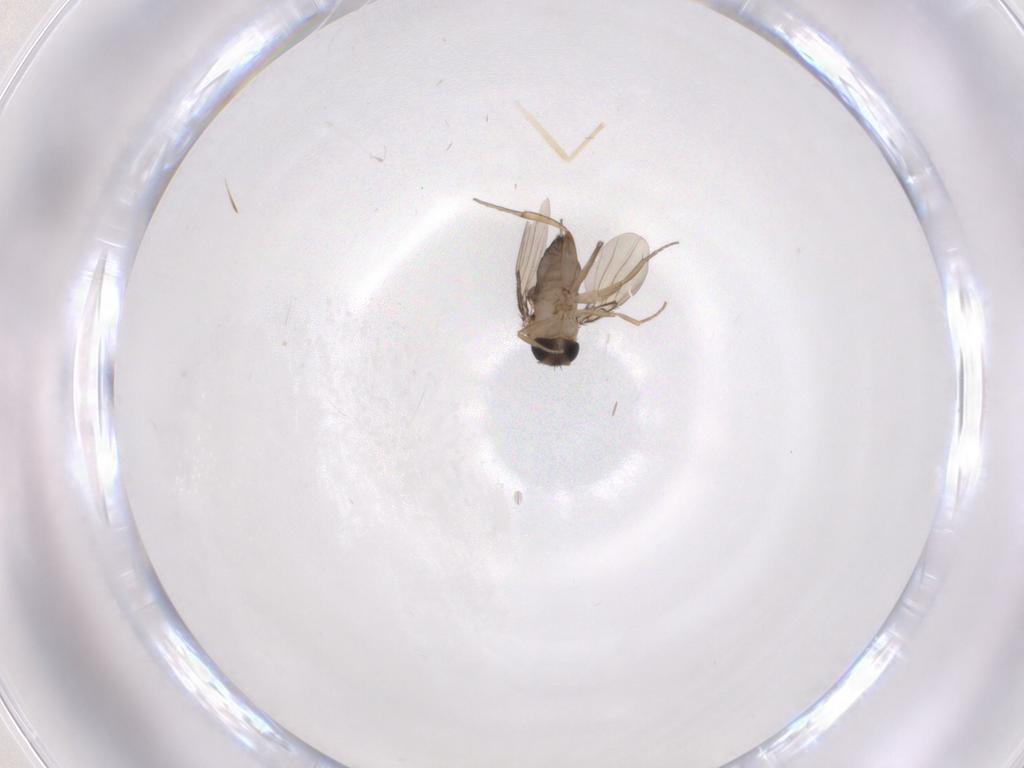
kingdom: Animalia
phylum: Arthropoda
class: Insecta
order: Diptera
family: Phoridae
